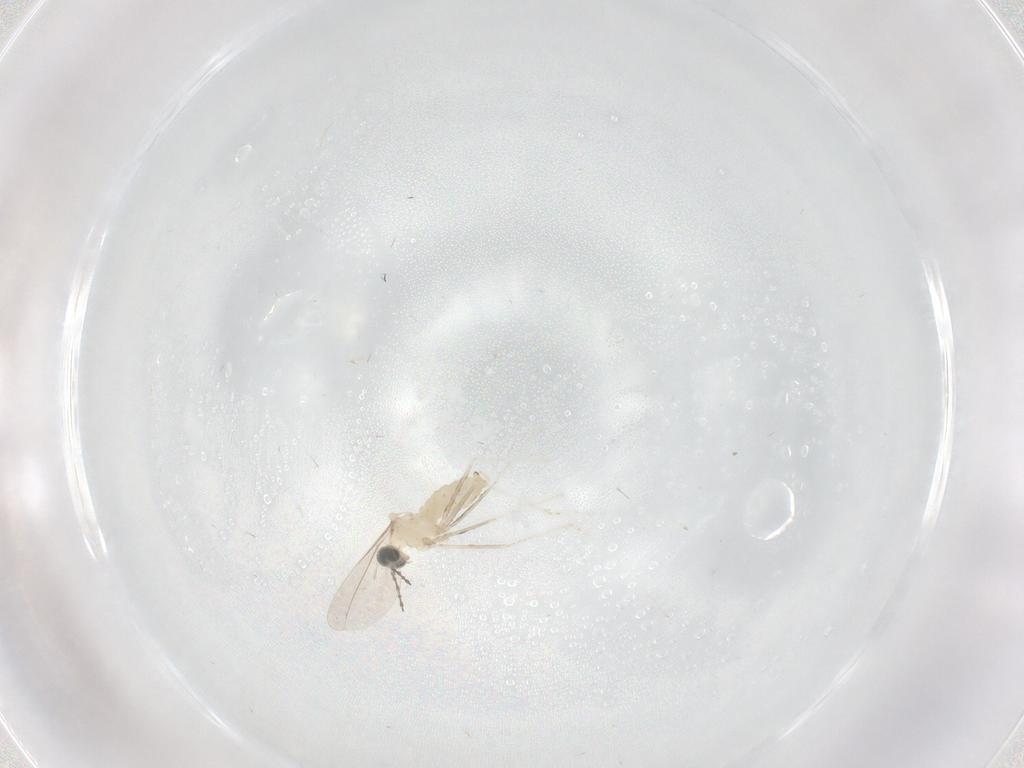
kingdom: Animalia
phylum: Arthropoda
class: Insecta
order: Diptera
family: Cecidomyiidae
